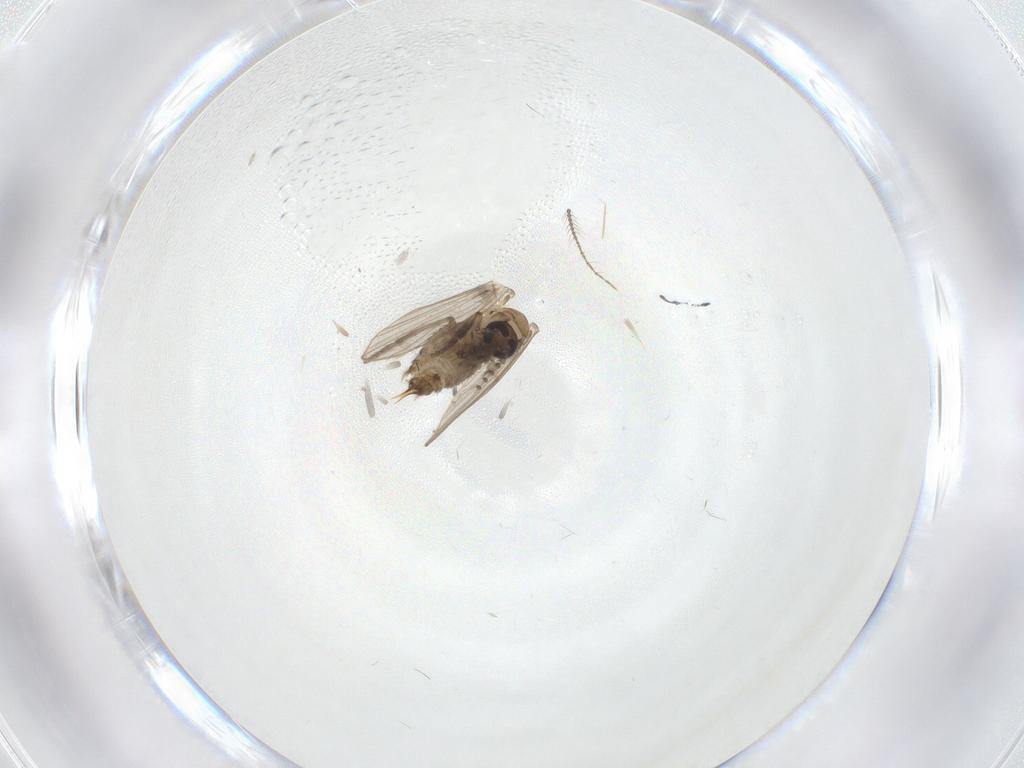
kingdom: Animalia
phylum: Arthropoda
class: Insecta
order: Diptera
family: Psychodidae
